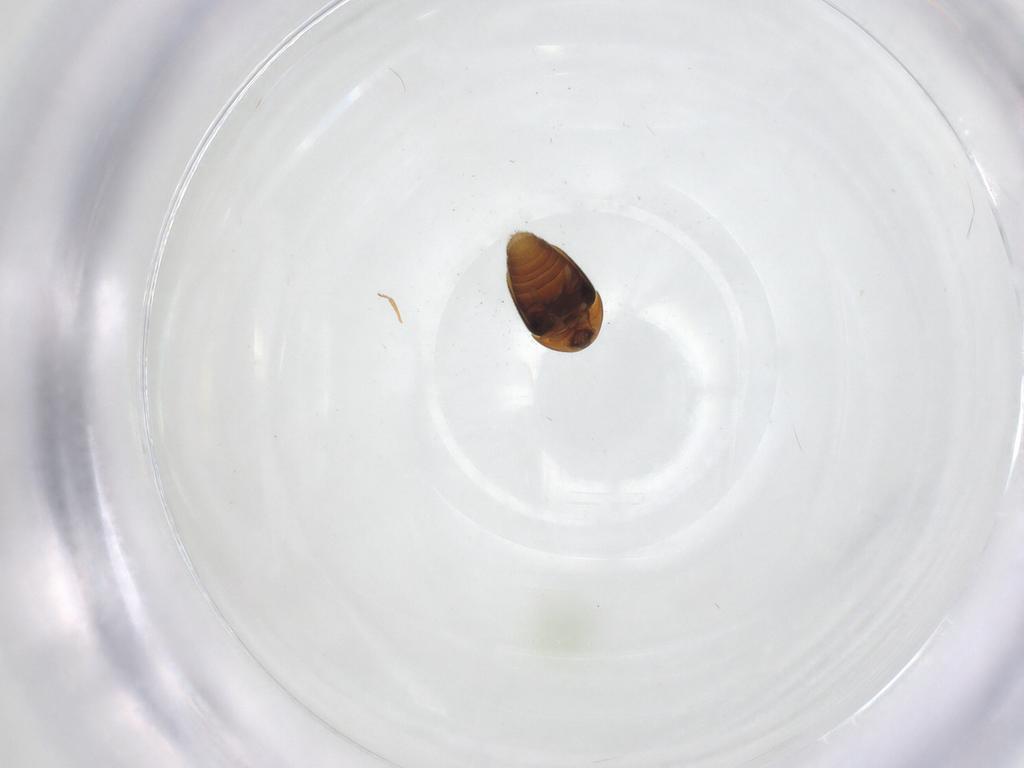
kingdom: Animalia
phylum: Arthropoda
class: Insecta
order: Coleoptera
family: Corylophidae
